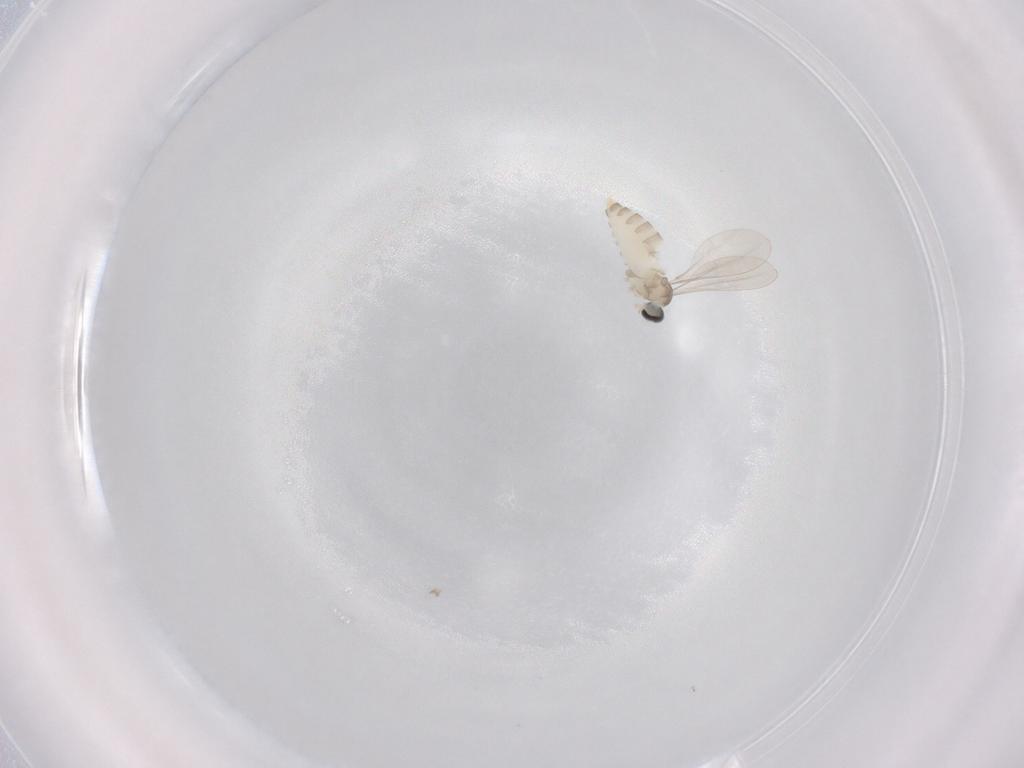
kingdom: Animalia
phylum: Arthropoda
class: Insecta
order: Diptera
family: Cecidomyiidae
